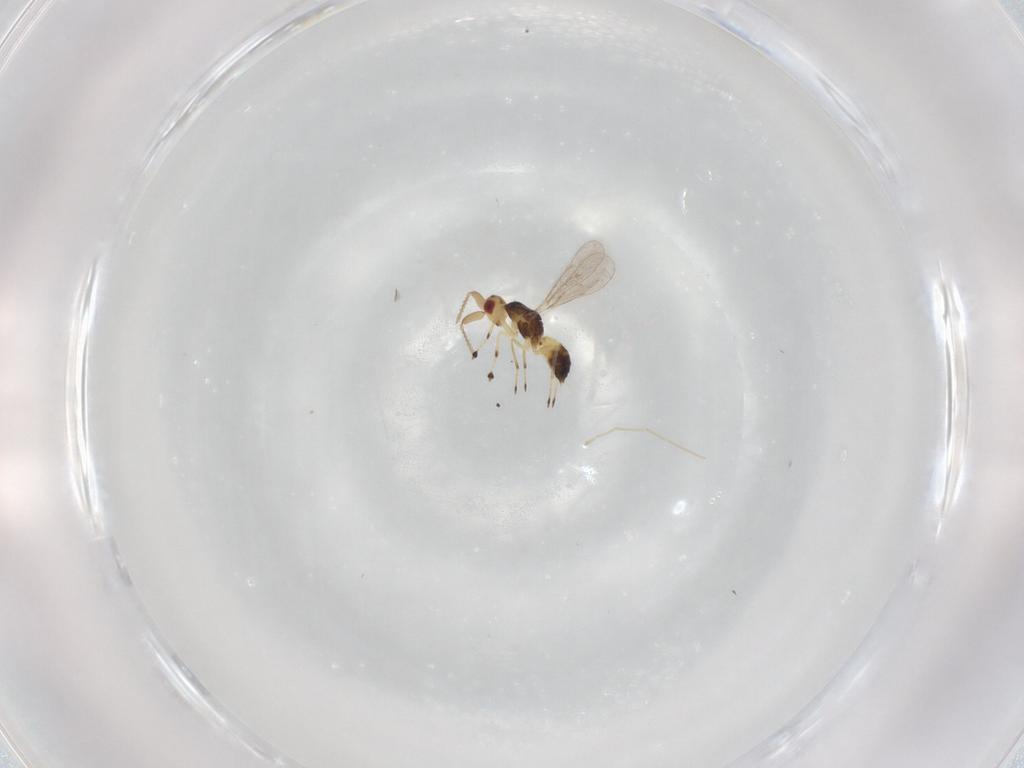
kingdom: Animalia
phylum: Arthropoda
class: Insecta
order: Hymenoptera
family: Eulophidae
